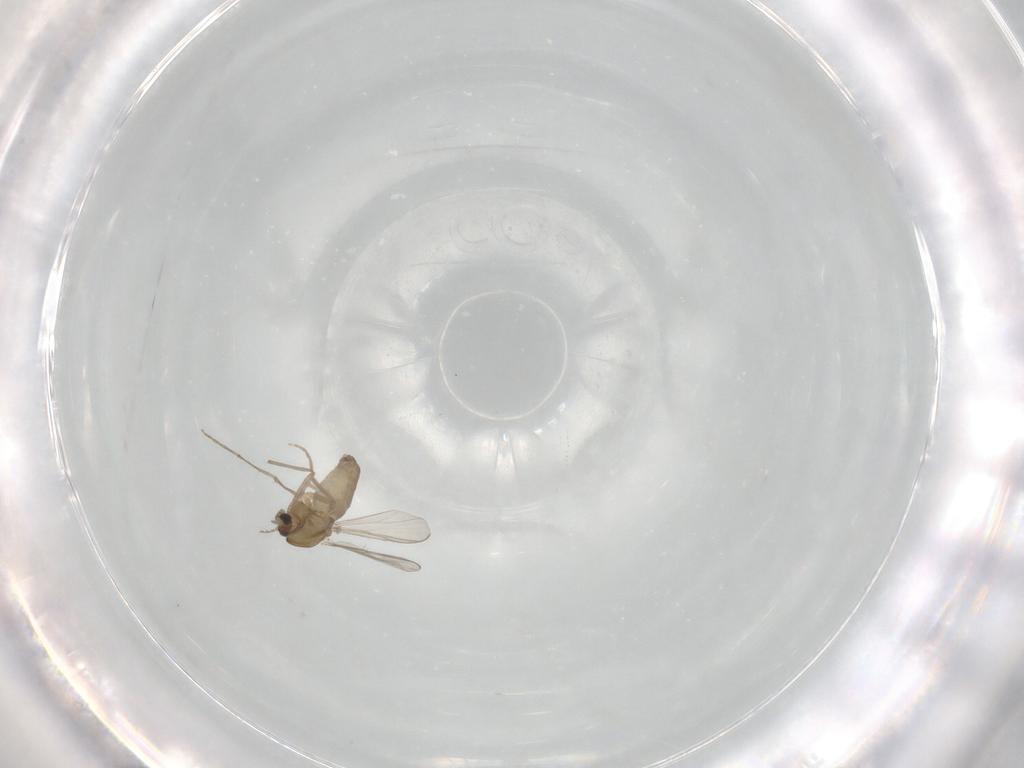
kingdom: Animalia
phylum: Arthropoda
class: Insecta
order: Diptera
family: Chironomidae
